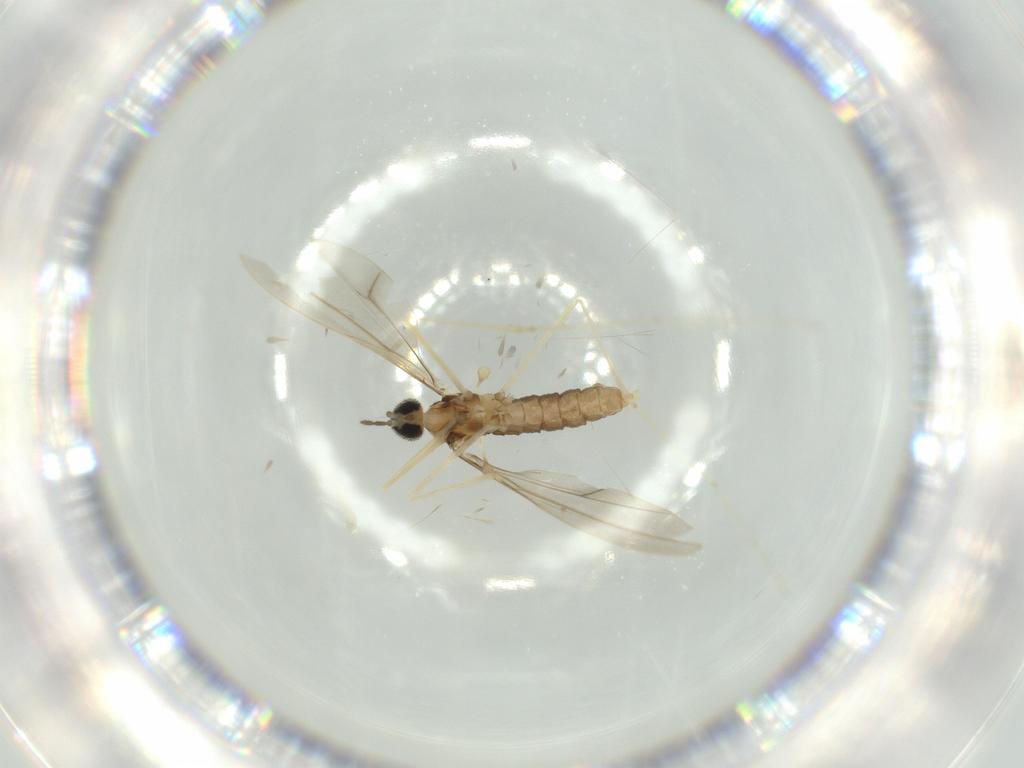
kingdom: Animalia
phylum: Arthropoda
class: Insecta
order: Diptera
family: Cecidomyiidae
